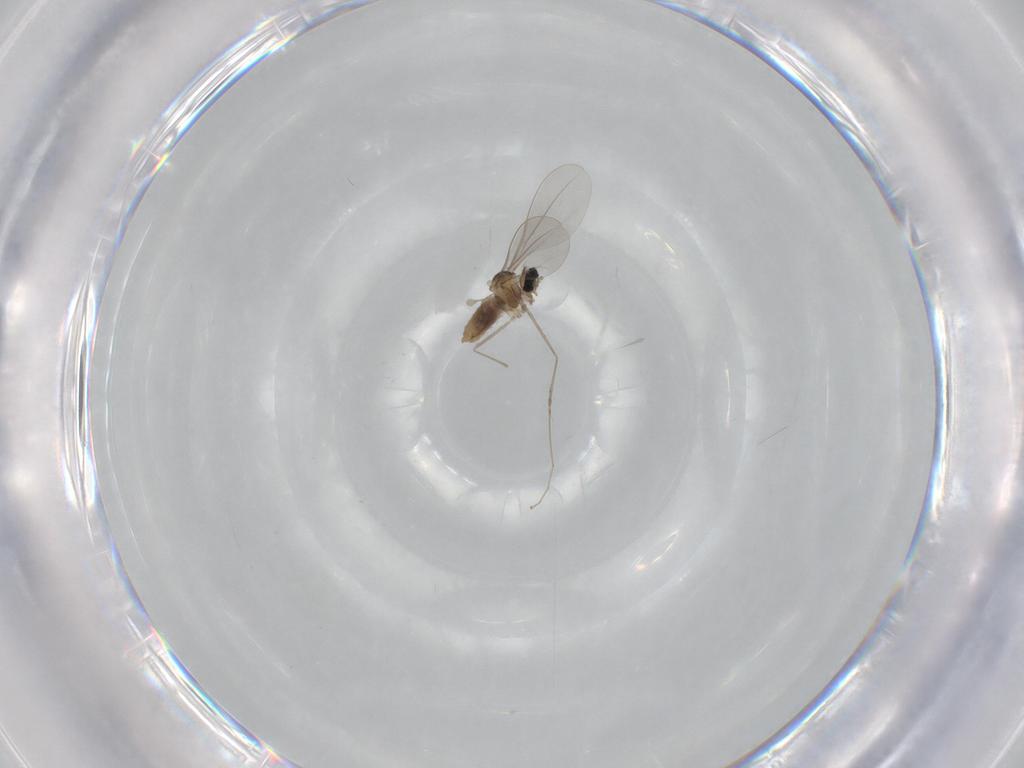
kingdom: Animalia
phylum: Arthropoda
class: Insecta
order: Diptera
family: Cecidomyiidae
